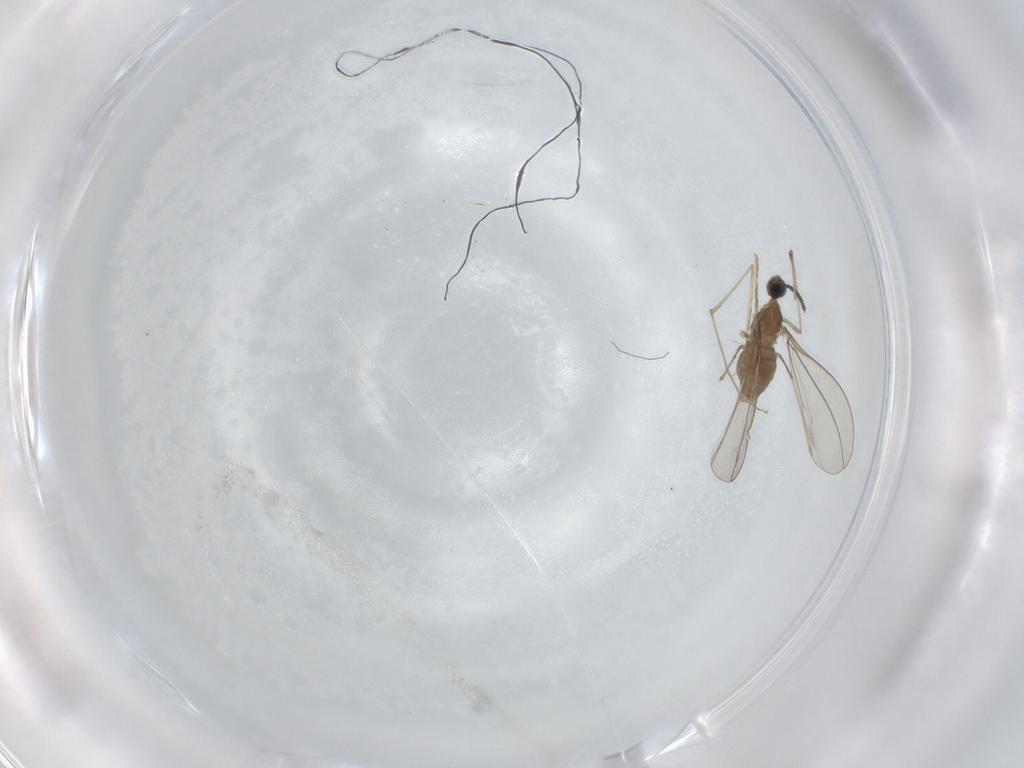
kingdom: Animalia
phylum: Arthropoda
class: Insecta
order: Diptera
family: Cecidomyiidae
